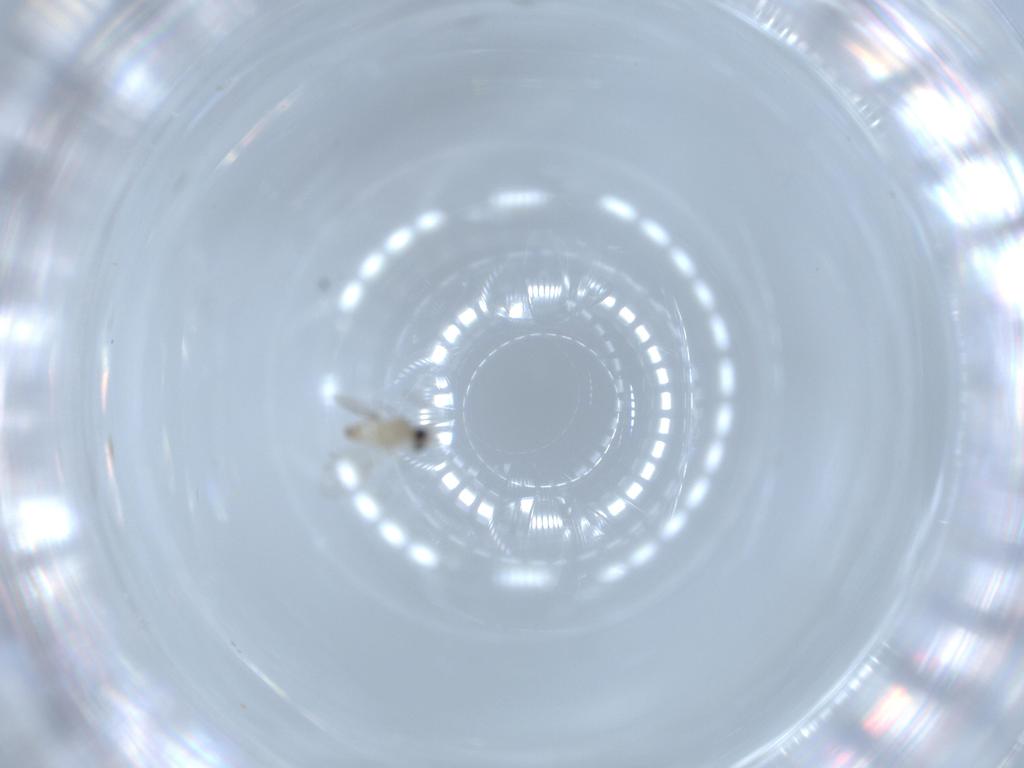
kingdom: Animalia
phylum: Arthropoda
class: Insecta
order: Diptera
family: Cecidomyiidae
